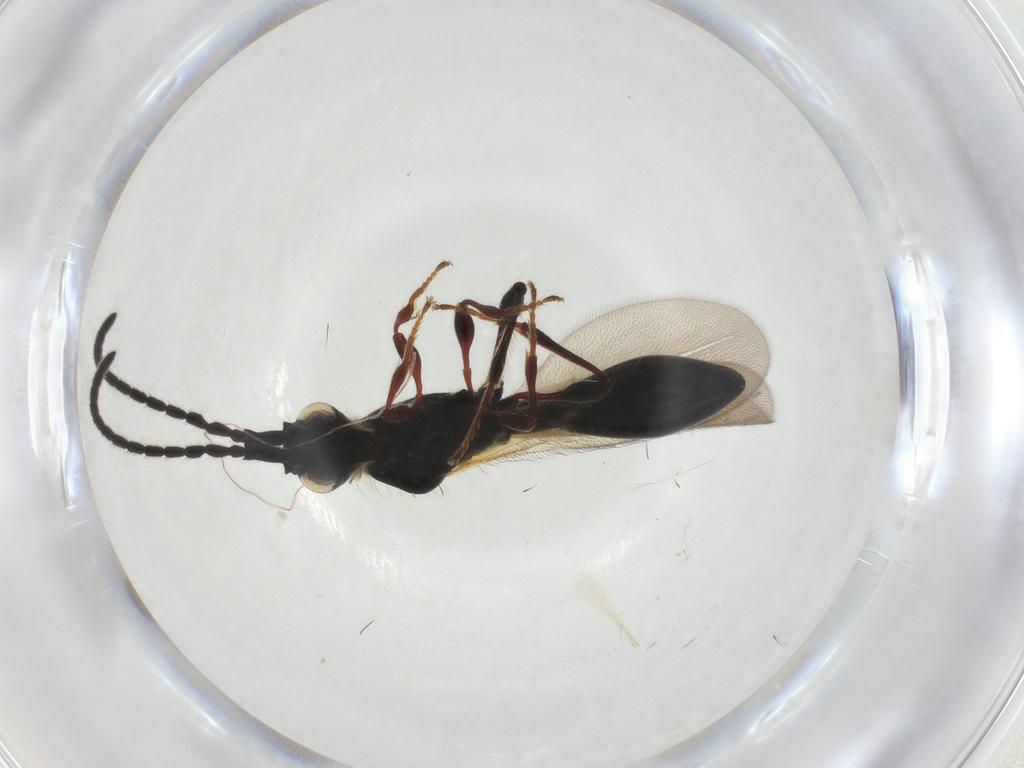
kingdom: Animalia
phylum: Arthropoda
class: Insecta
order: Hymenoptera
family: Diapriidae
